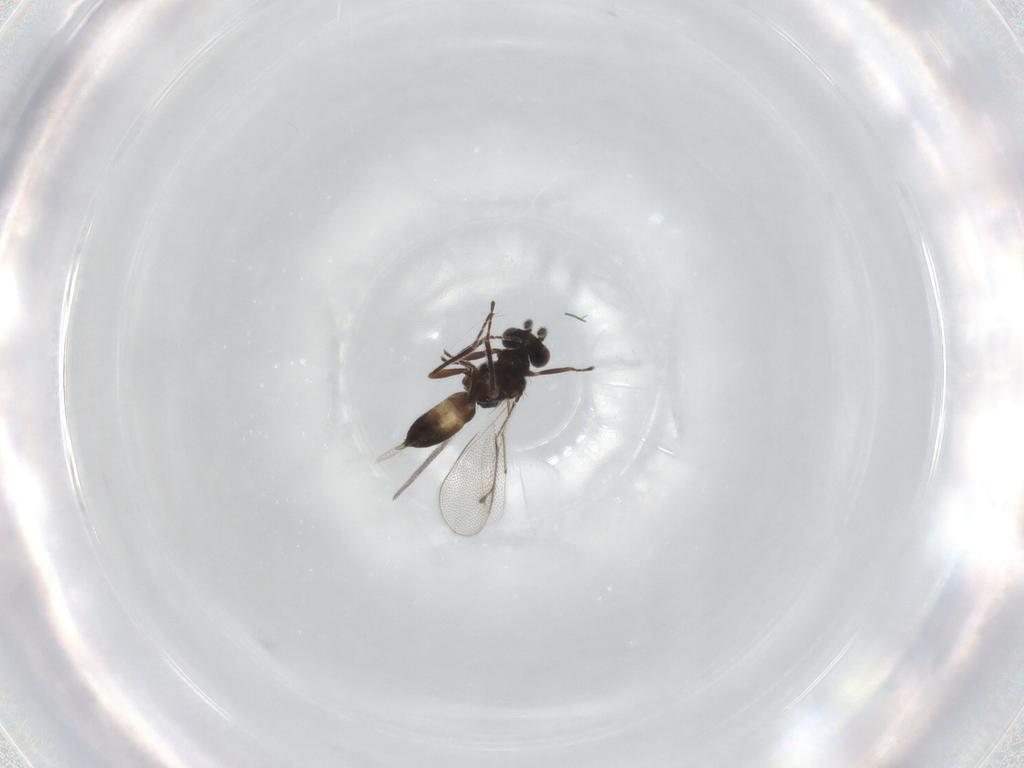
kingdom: Animalia
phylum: Arthropoda
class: Insecta
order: Hymenoptera
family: Eulophidae
